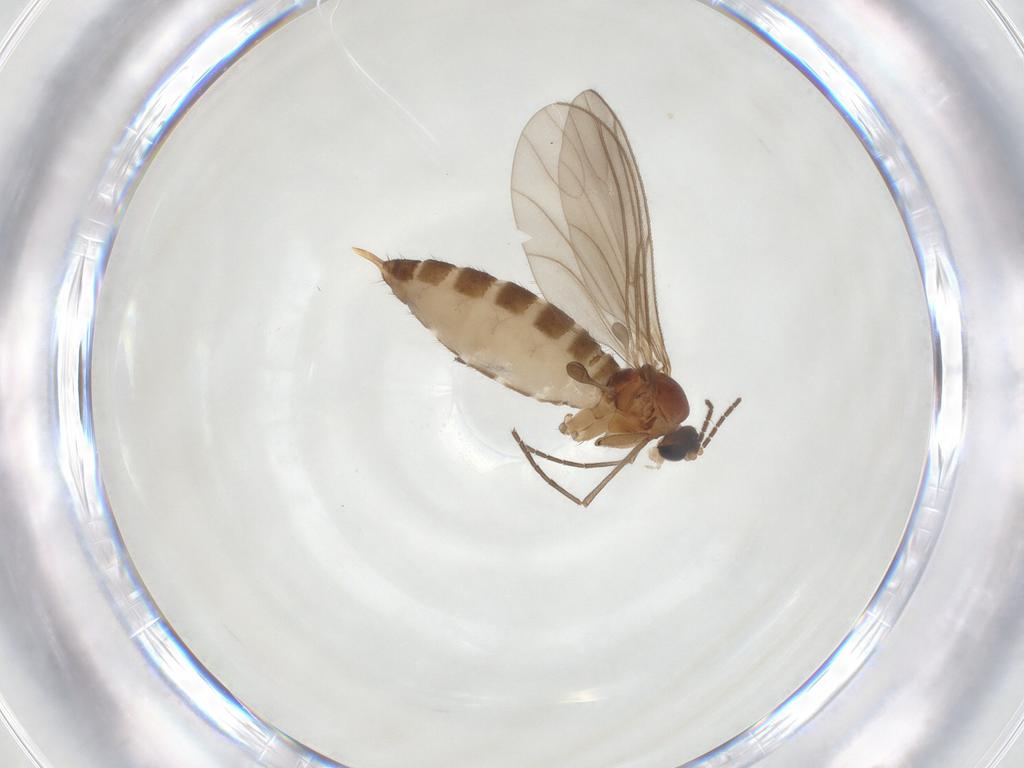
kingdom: Animalia
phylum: Arthropoda
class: Insecta
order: Diptera
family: Sciaridae
